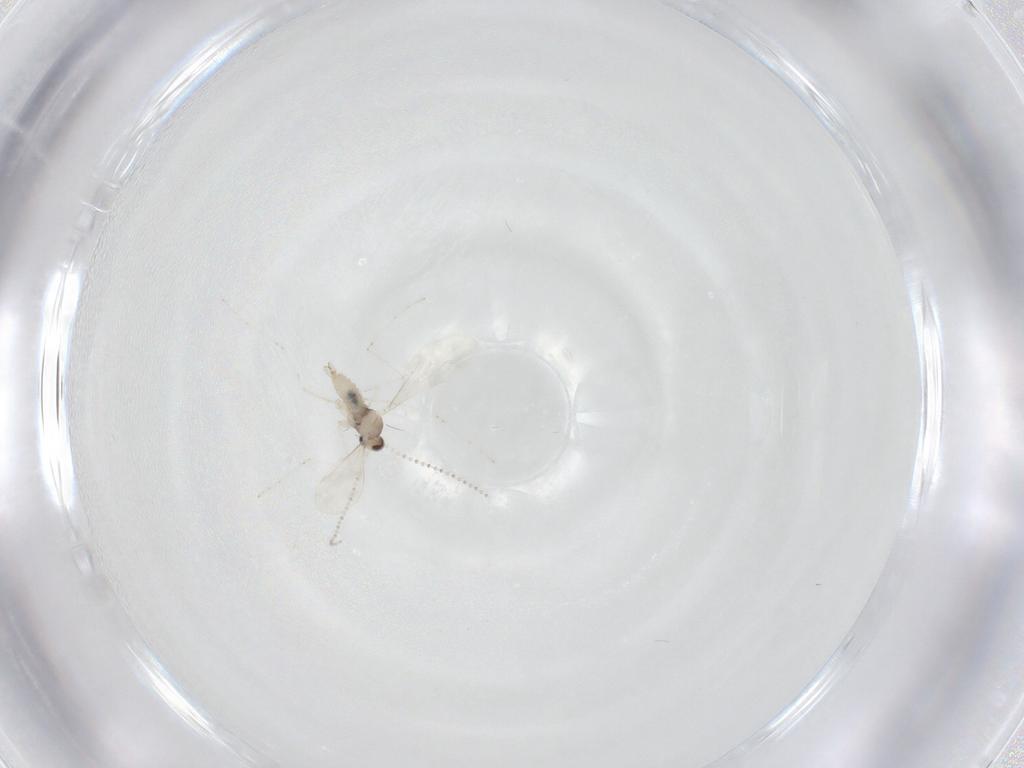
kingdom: Animalia
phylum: Arthropoda
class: Insecta
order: Diptera
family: Cecidomyiidae
